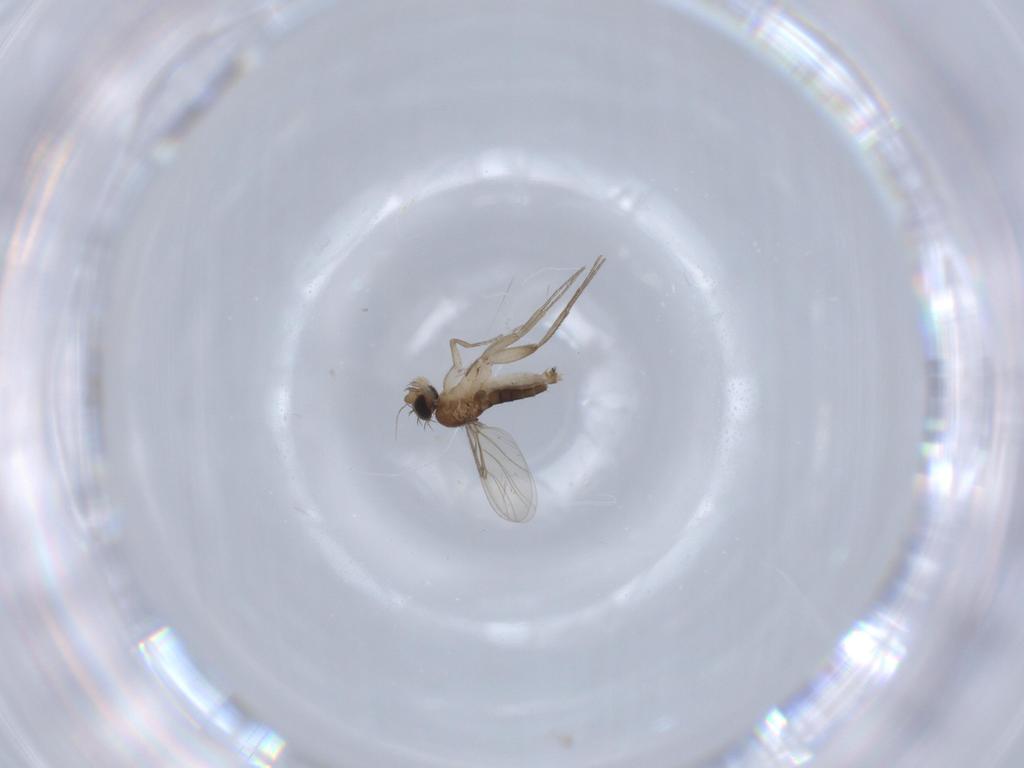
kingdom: Animalia
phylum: Arthropoda
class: Insecta
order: Diptera
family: Phoridae
